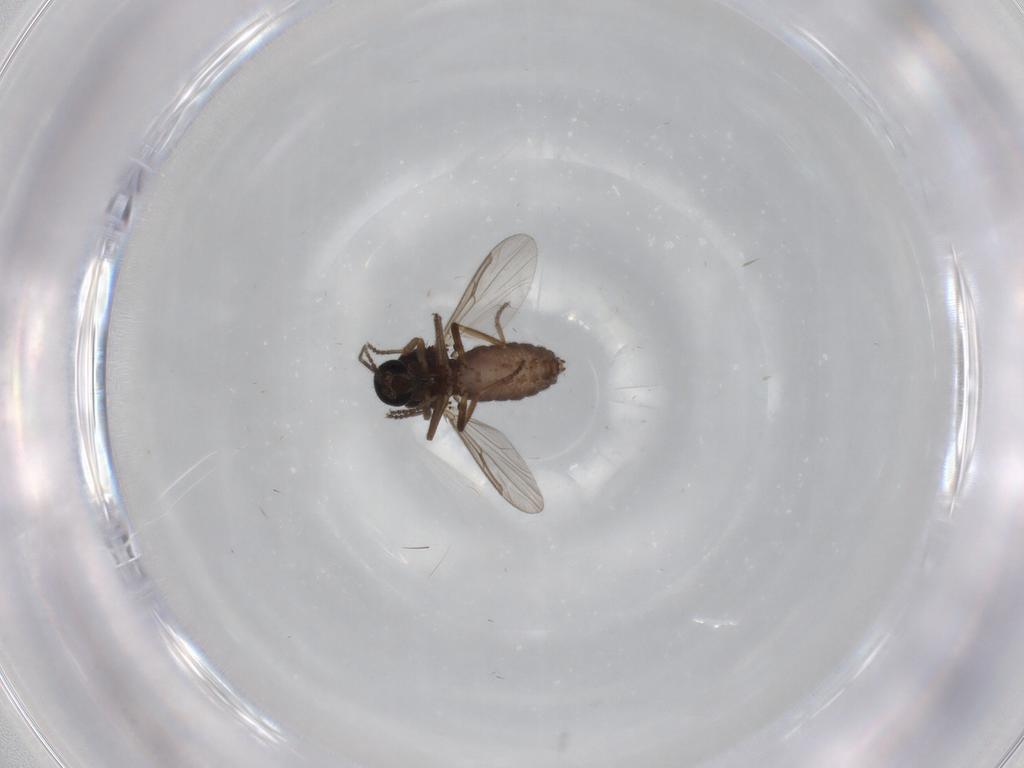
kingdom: Animalia
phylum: Arthropoda
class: Insecta
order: Diptera
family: Ceratopogonidae
